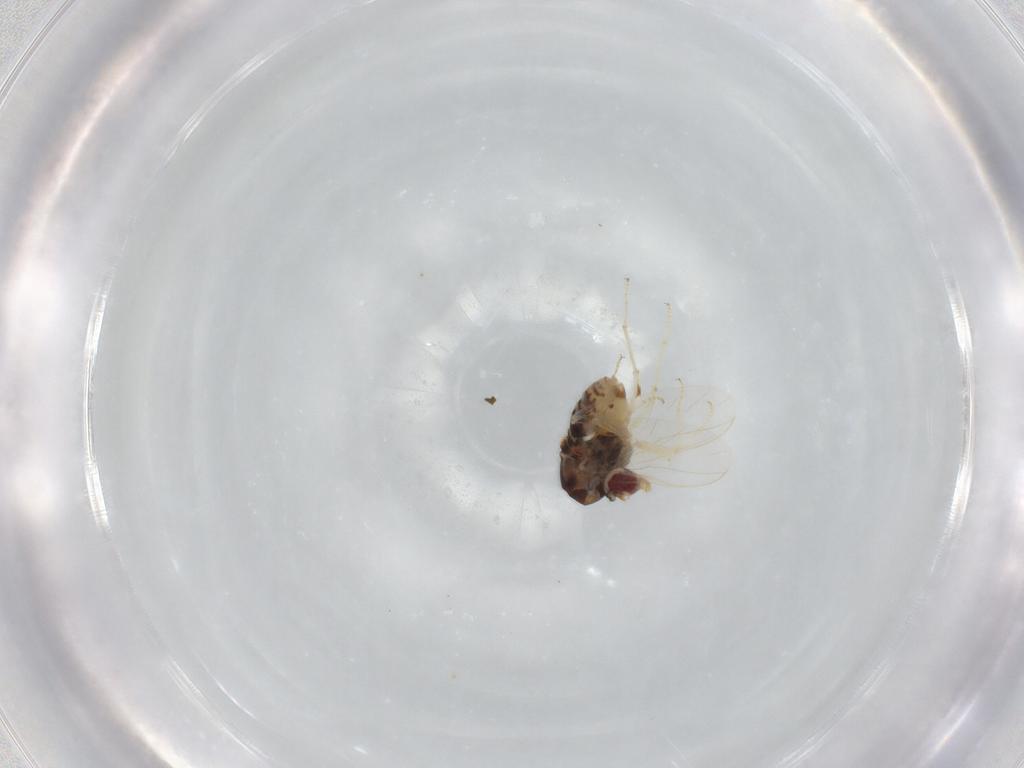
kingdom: Animalia
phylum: Arthropoda
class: Insecta
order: Diptera
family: Bombyliidae
